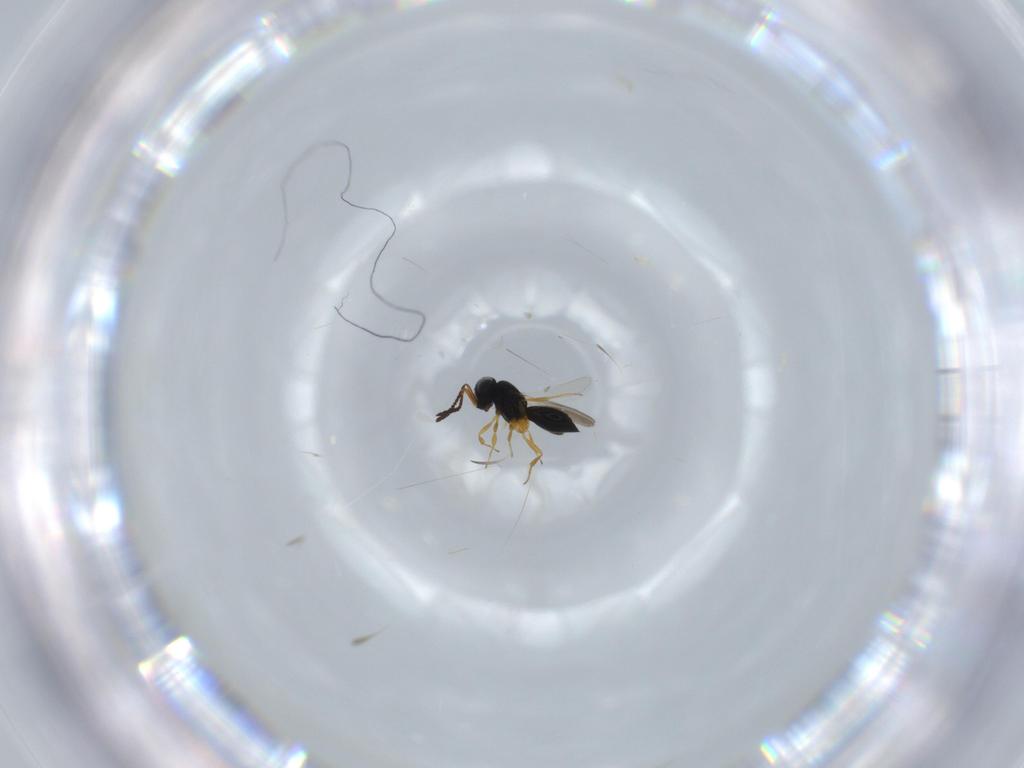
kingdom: Animalia
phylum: Arthropoda
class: Insecta
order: Hymenoptera
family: Scelionidae
